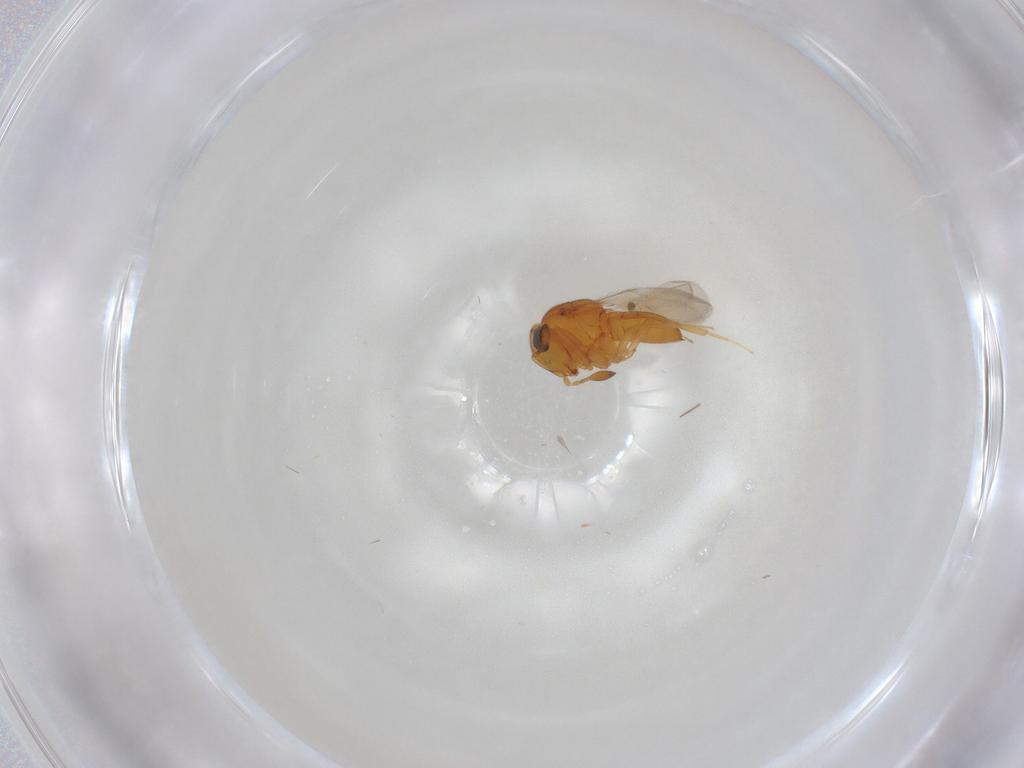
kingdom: Animalia
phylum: Arthropoda
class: Insecta
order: Hymenoptera
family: Scelionidae
